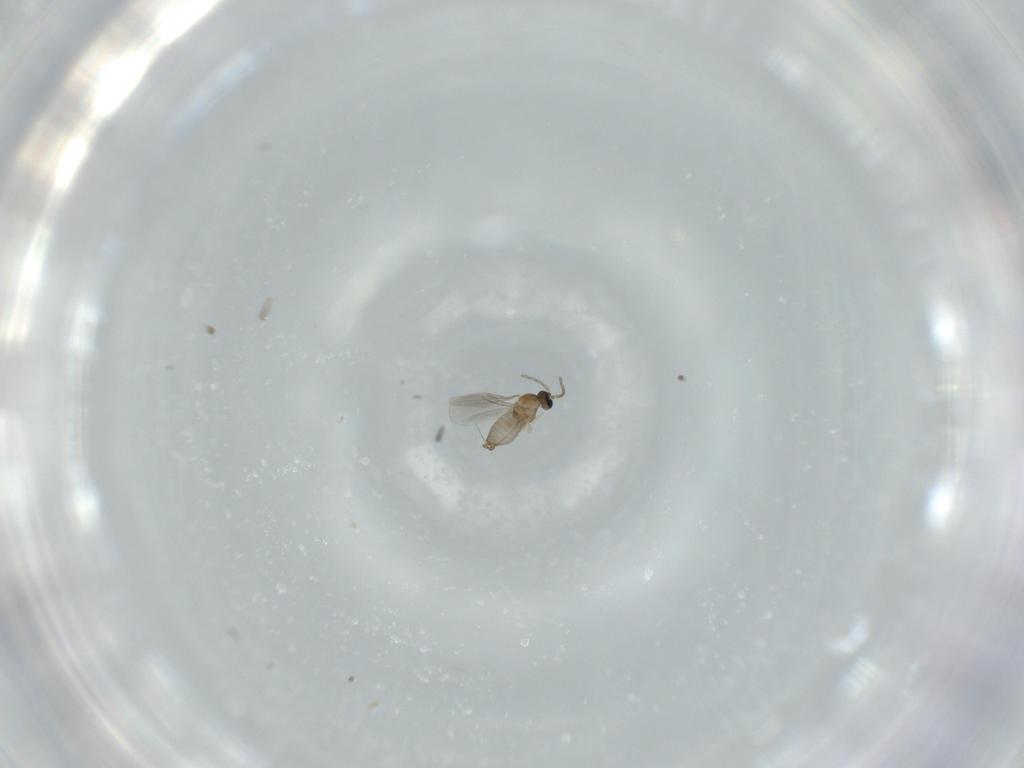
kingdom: Animalia
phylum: Arthropoda
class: Insecta
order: Diptera
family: Cecidomyiidae
